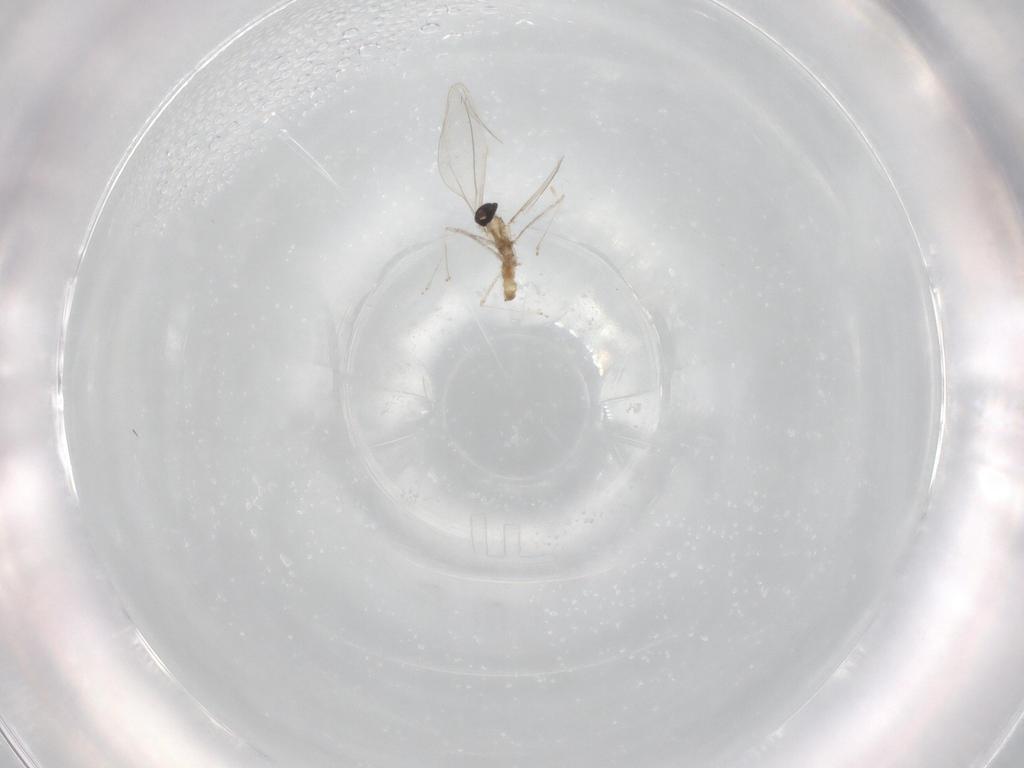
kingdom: Animalia
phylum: Arthropoda
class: Insecta
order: Diptera
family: Cecidomyiidae
